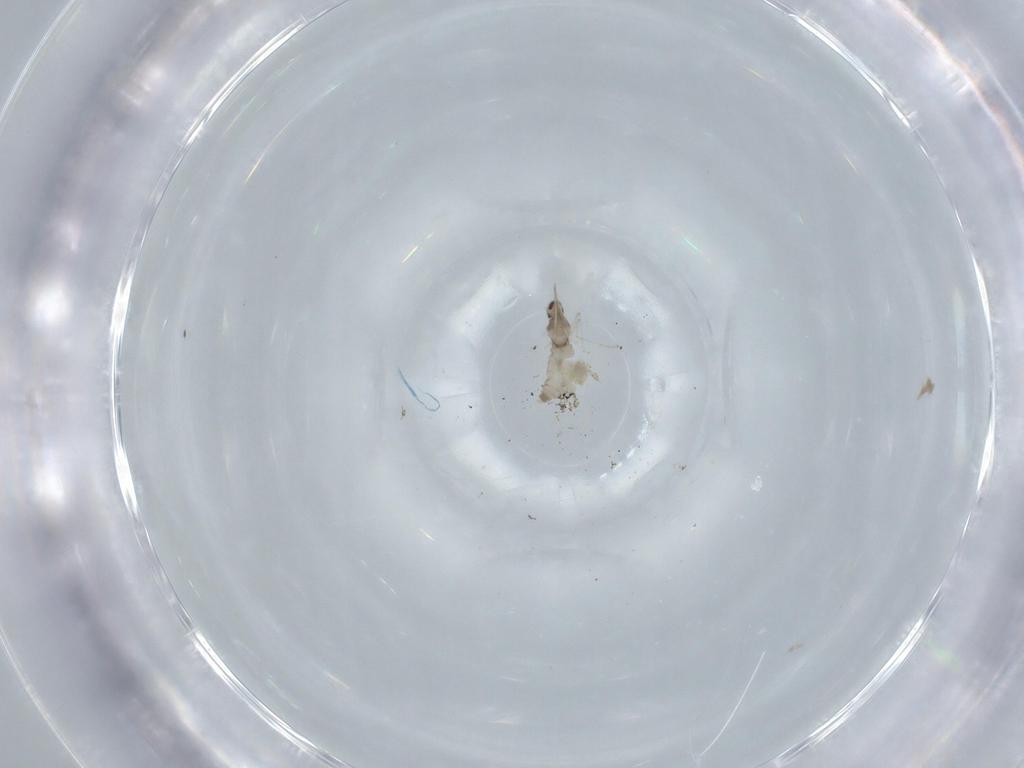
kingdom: Animalia
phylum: Arthropoda
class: Insecta
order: Diptera
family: Cecidomyiidae
